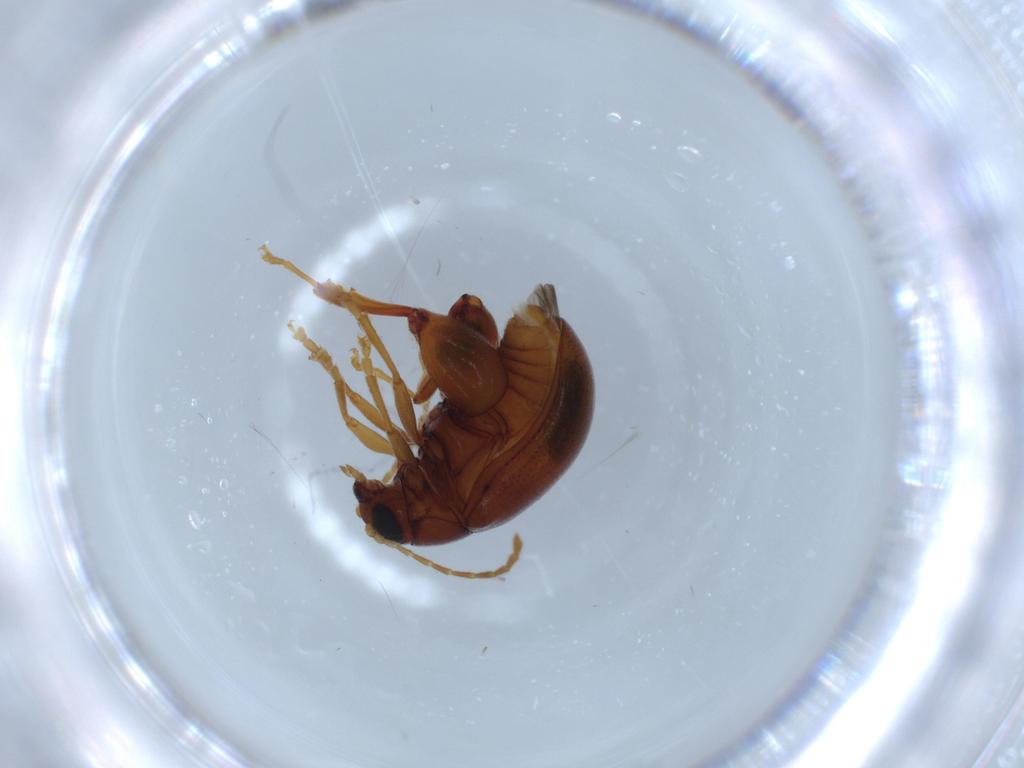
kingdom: Animalia
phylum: Arthropoda
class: Insecta
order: Coleoptera
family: Chrysomelidae
